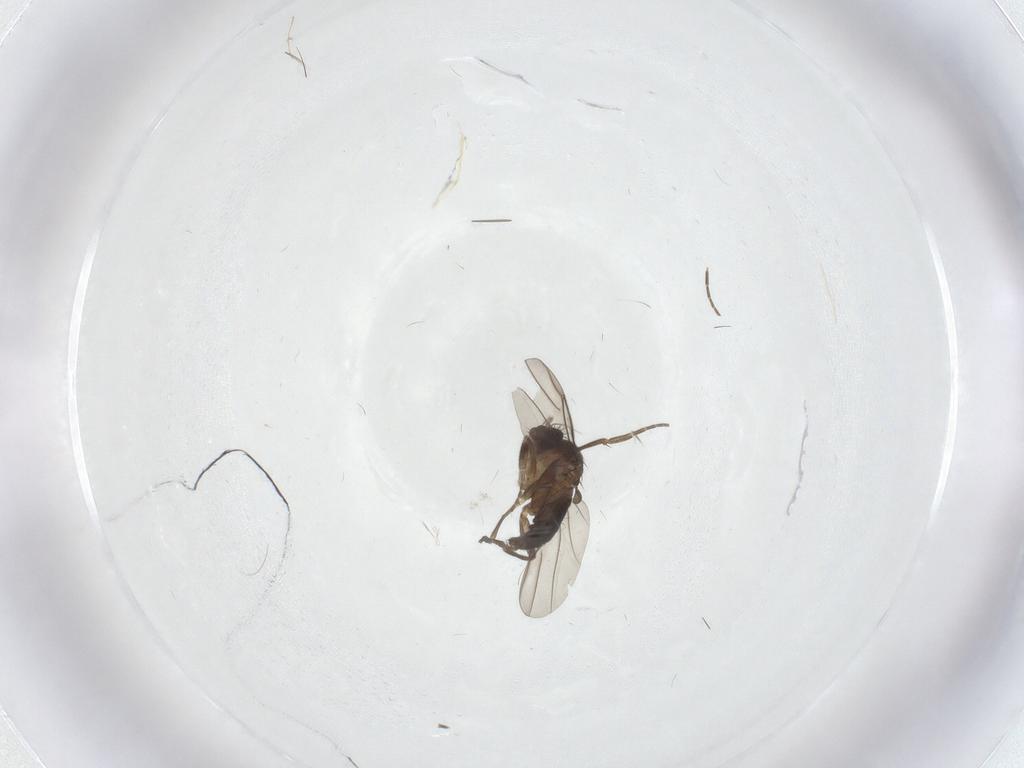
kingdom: Animalia
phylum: Arthropoda
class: Insecta
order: Diptera
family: Phoridae
